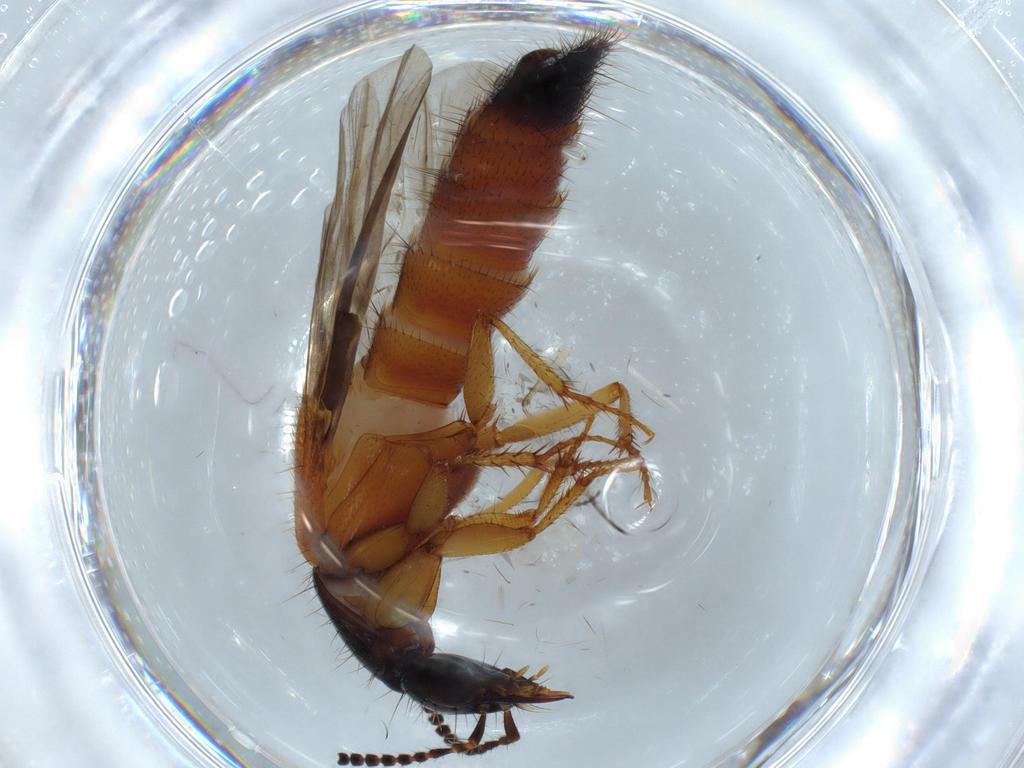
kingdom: Animalia
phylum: Arthropoda
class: Insecta
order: Coleoptera
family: Staphylinidae
